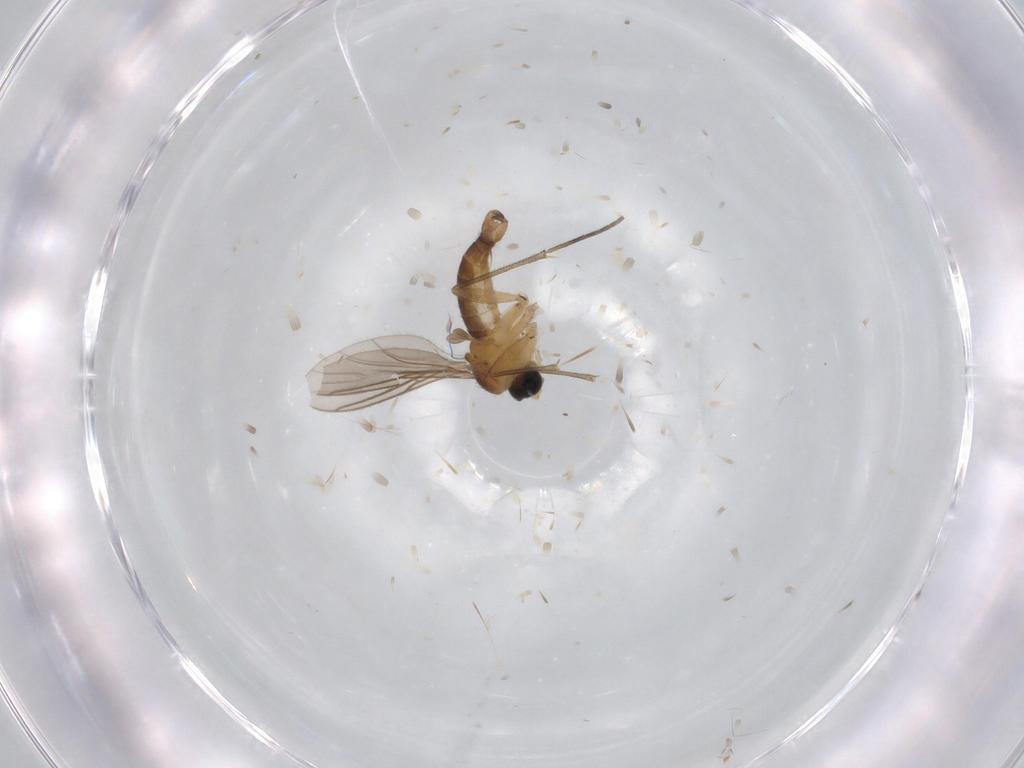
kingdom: Animalia
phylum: Arthropoda
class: Insecta
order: Diptera
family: Sciaridae
